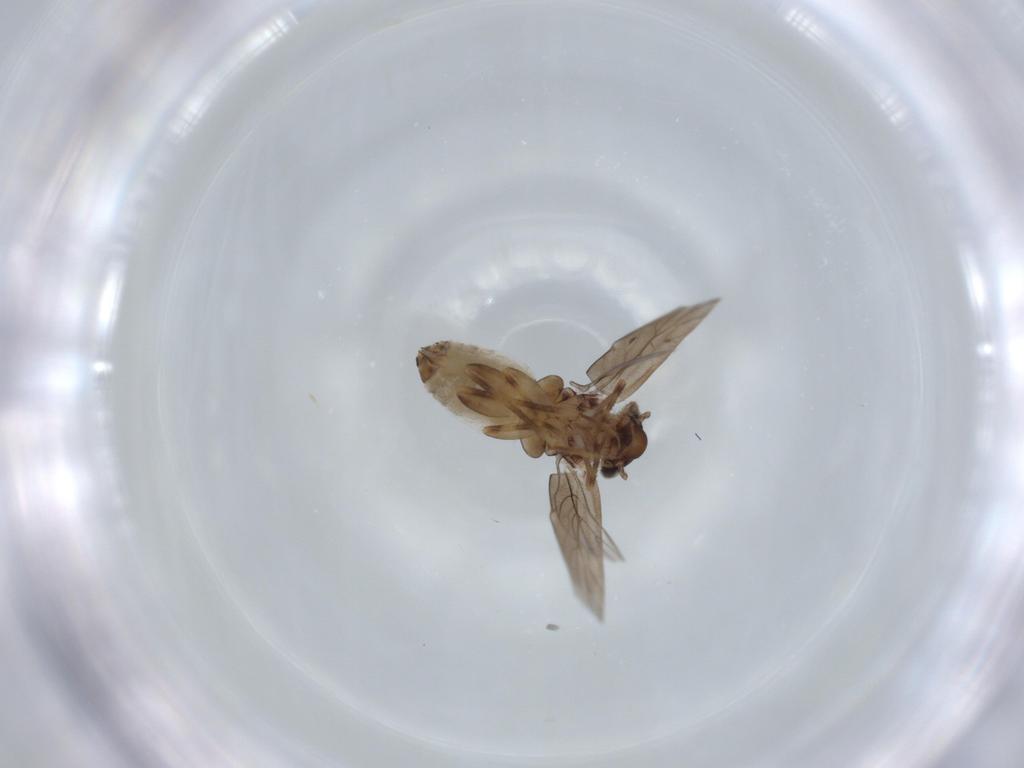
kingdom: Animalia
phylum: Arthropoda
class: Insecta
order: Psocodea
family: Lepidopsocidae
